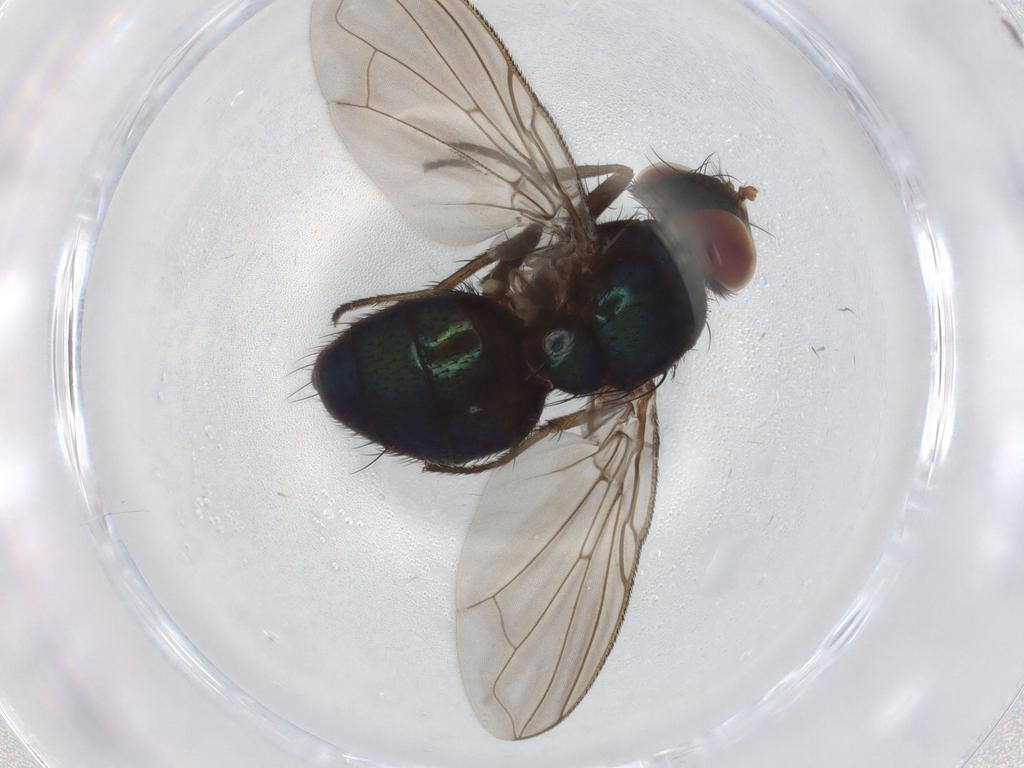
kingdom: Animalia
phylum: Arthropoda
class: Insecta
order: Diptera
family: Calliphoridae
